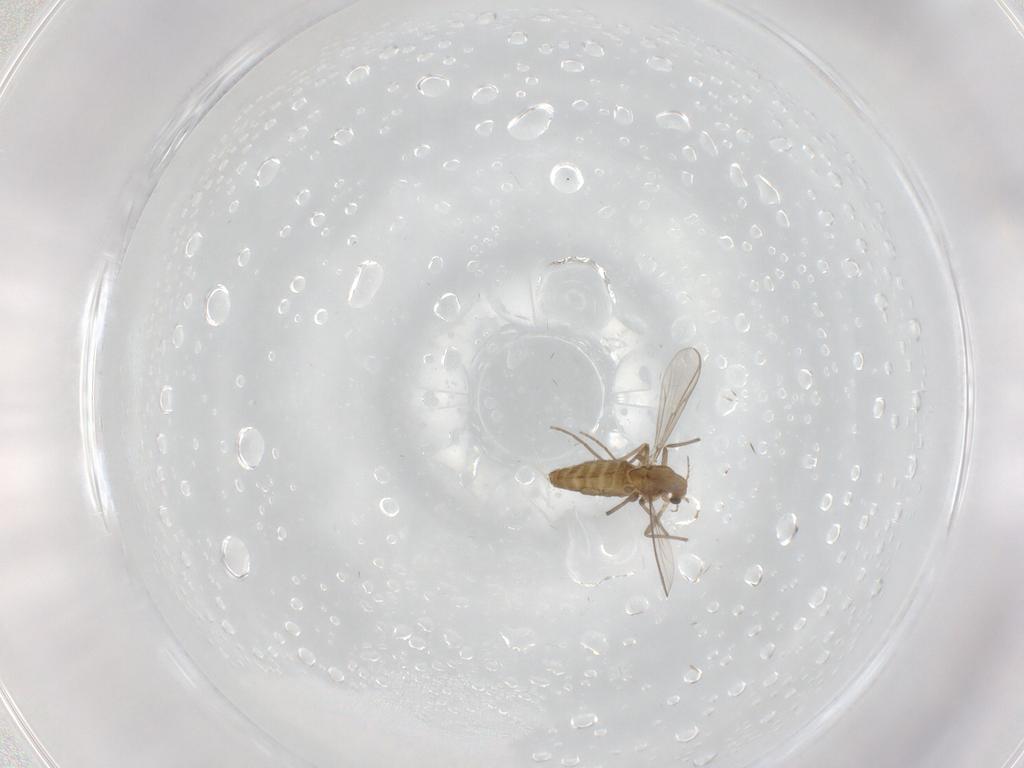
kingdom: Animalia
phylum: Arthropoda
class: Insecta
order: Diptera
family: Chironomidae
